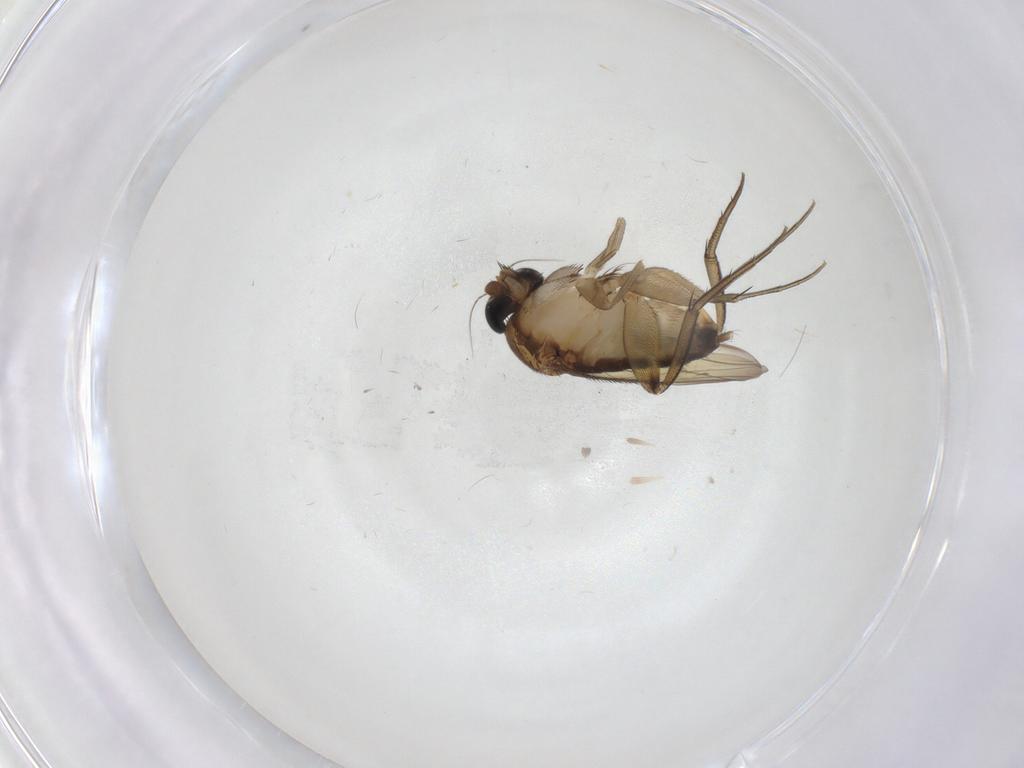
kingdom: Animalia
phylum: Arthropoda
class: Insecta
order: Diptera
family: Phoridae
